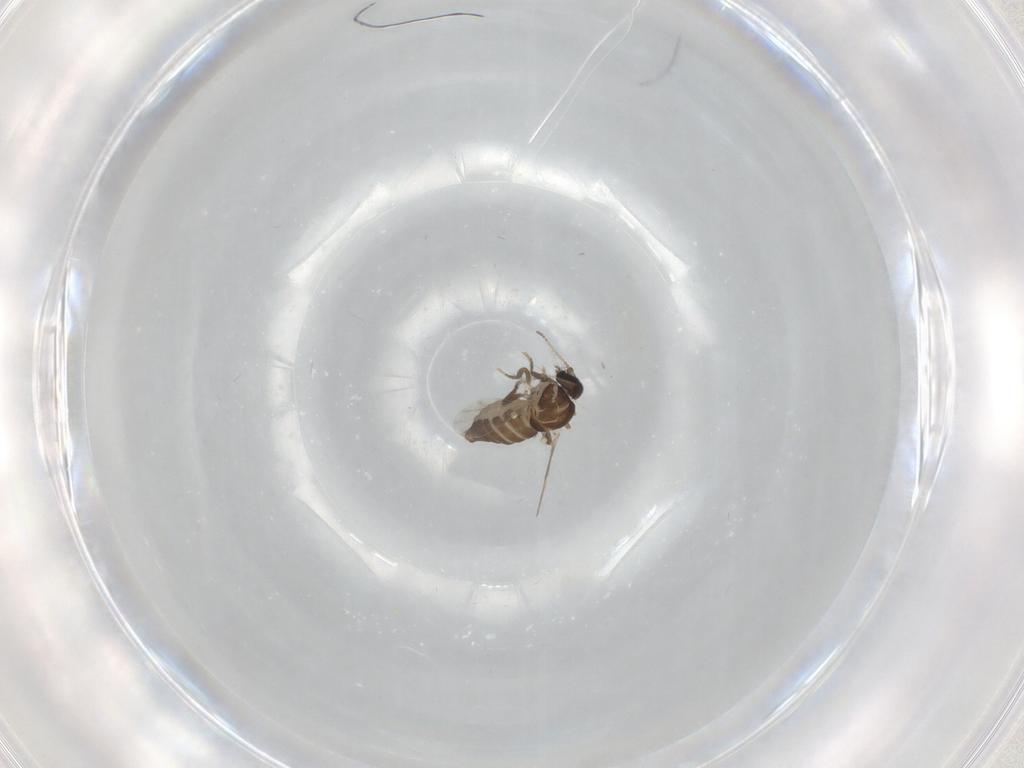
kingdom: Animalia
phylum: Arthropoda
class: Insecta
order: Diptera
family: Ceratopogonidae
